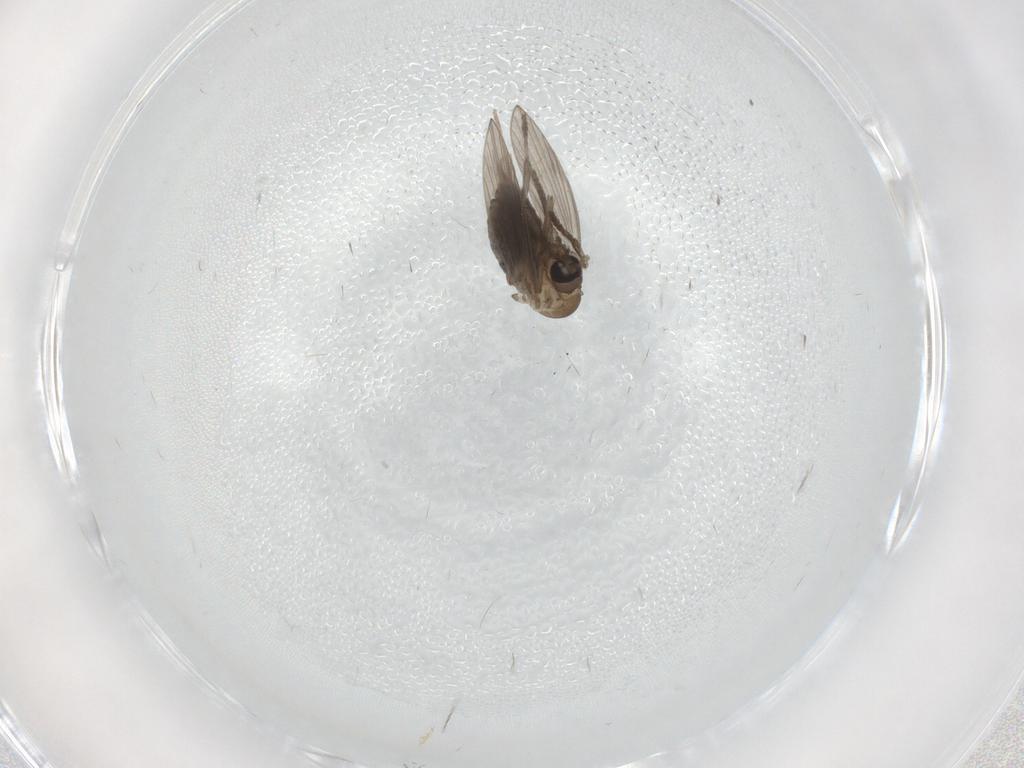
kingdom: Animalia
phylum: Arthropoda
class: Insecta
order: Diptera
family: Chironomidae
